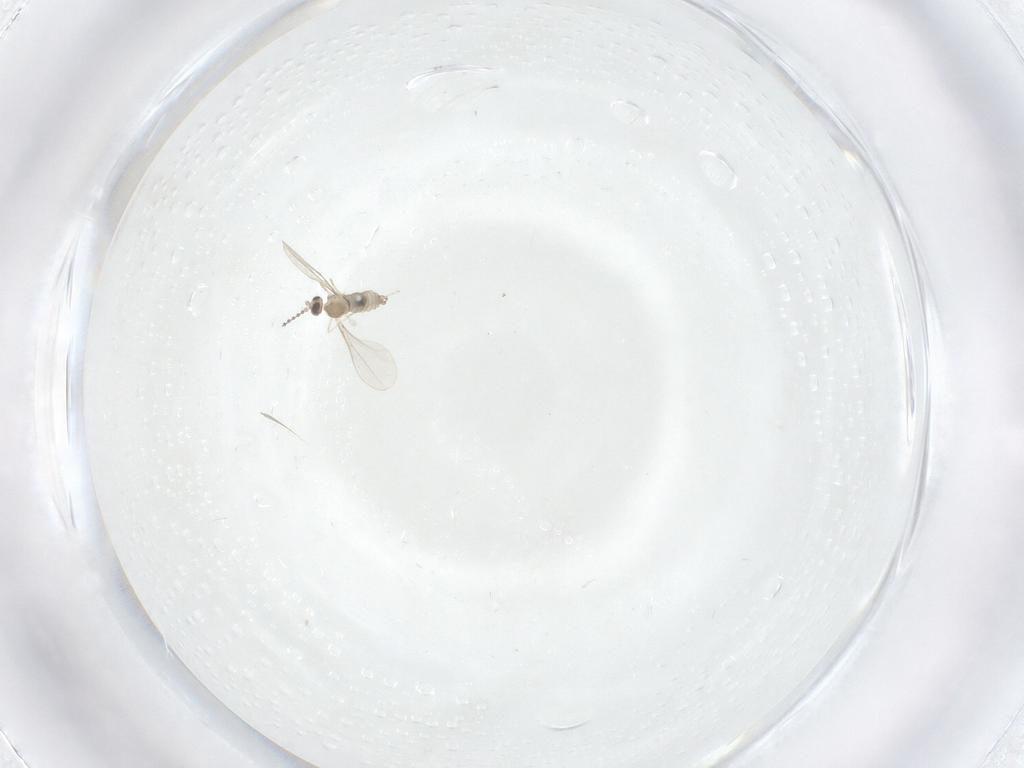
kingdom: Animalia
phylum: Arthropoda
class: Insecta
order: Diptera
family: Cecidomyiidae
